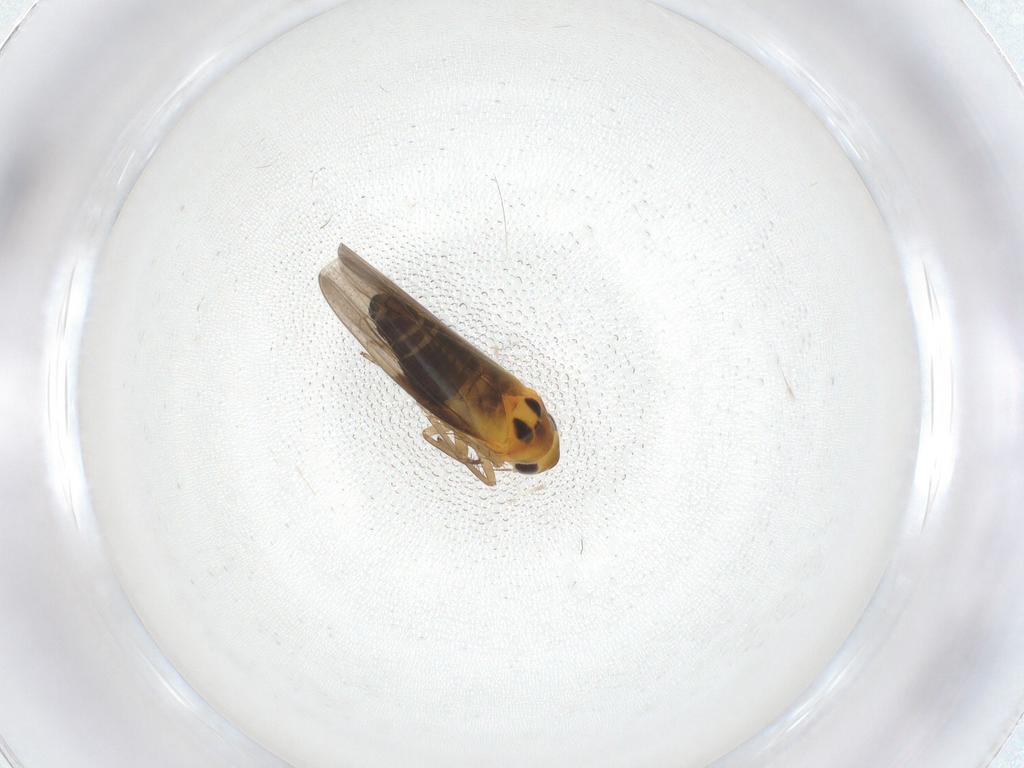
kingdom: Animalia
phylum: Arthropoda
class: Insecta
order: Hemiptera
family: Cicadellidae
